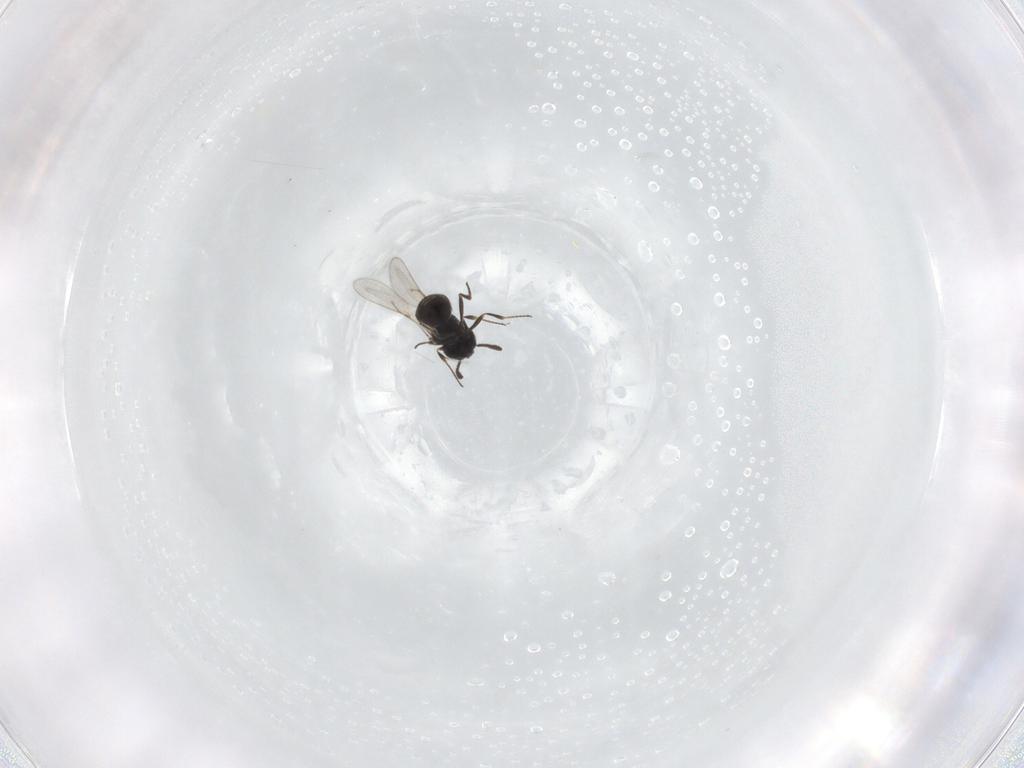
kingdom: Animalia
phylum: Arthropoda
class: Insecta
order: Hymenoptera
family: Scelionidae
